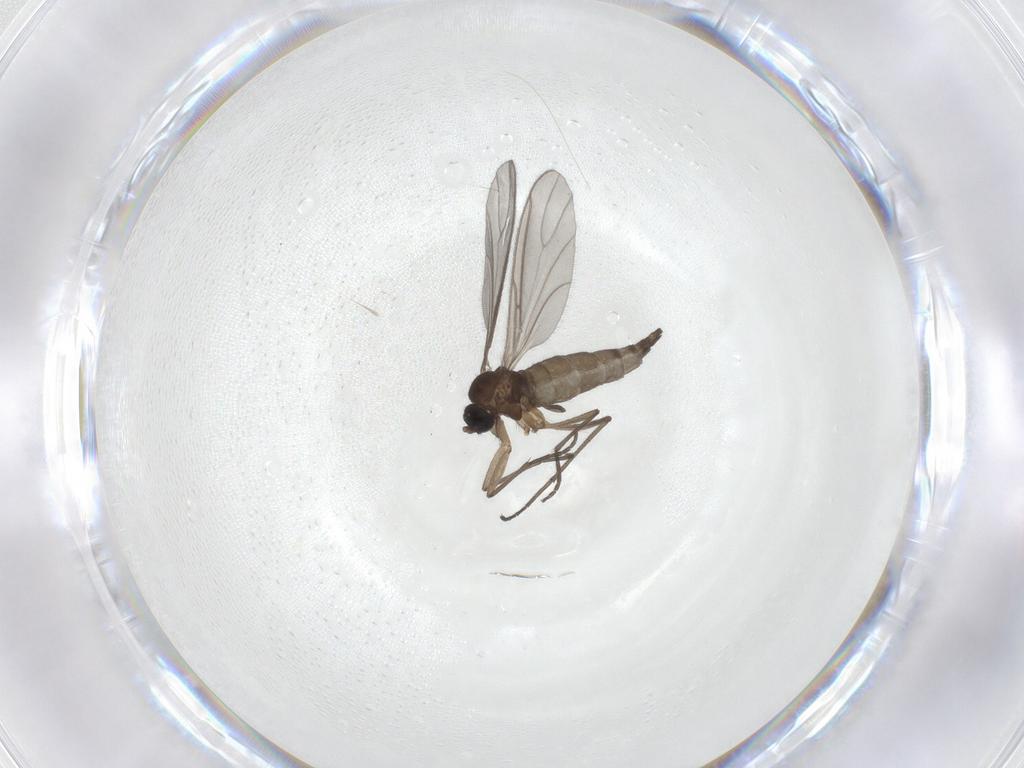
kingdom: Animalia
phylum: Arthropoda
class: Insecta
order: Diptera
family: Sciaridae
